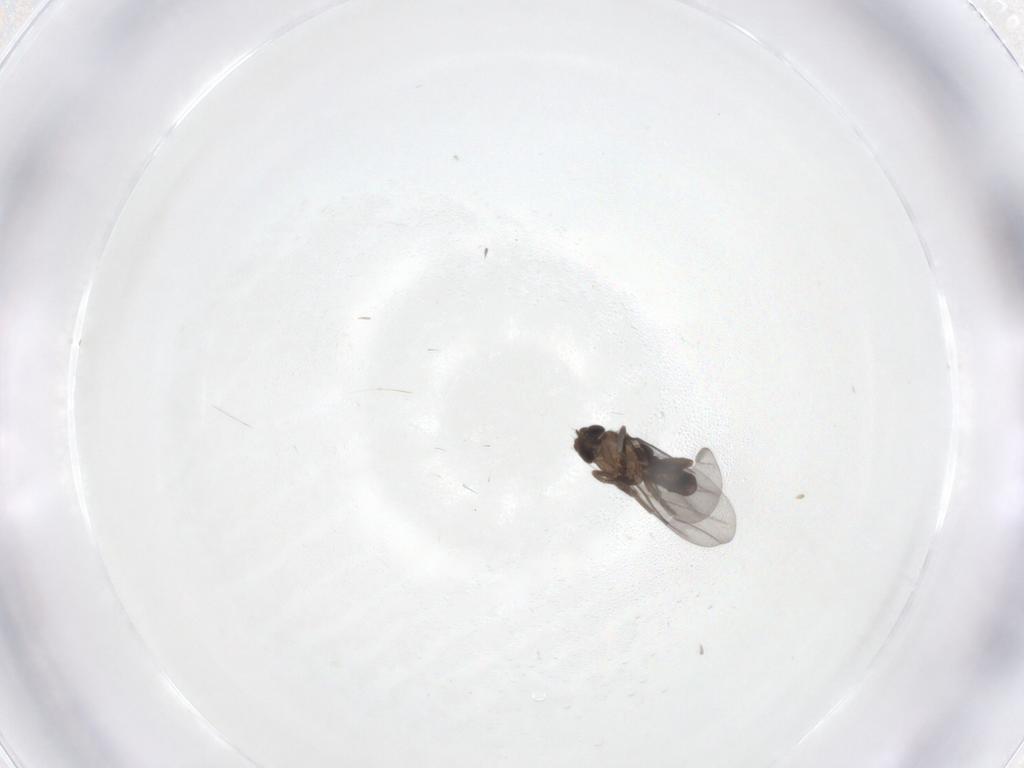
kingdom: Animalia
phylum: Arthropoda
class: Insecta
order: Diptera
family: Phoridae
